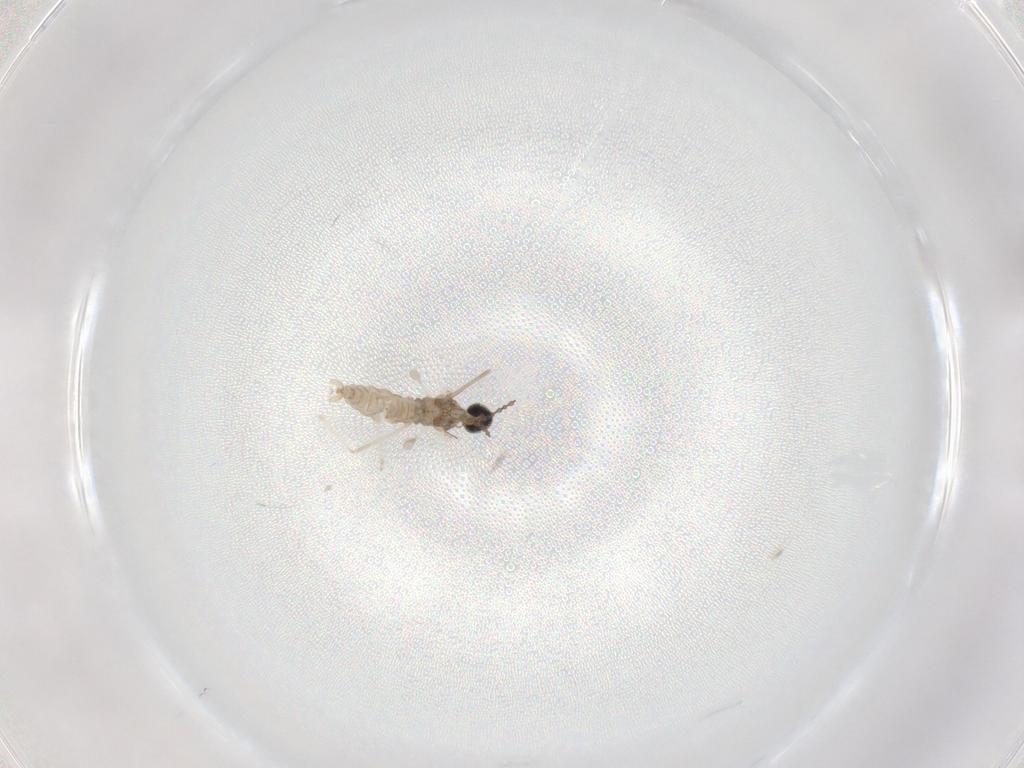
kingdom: Animalia
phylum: Arthropoda
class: Insecta
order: Diptera
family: Cecidomyiidae
